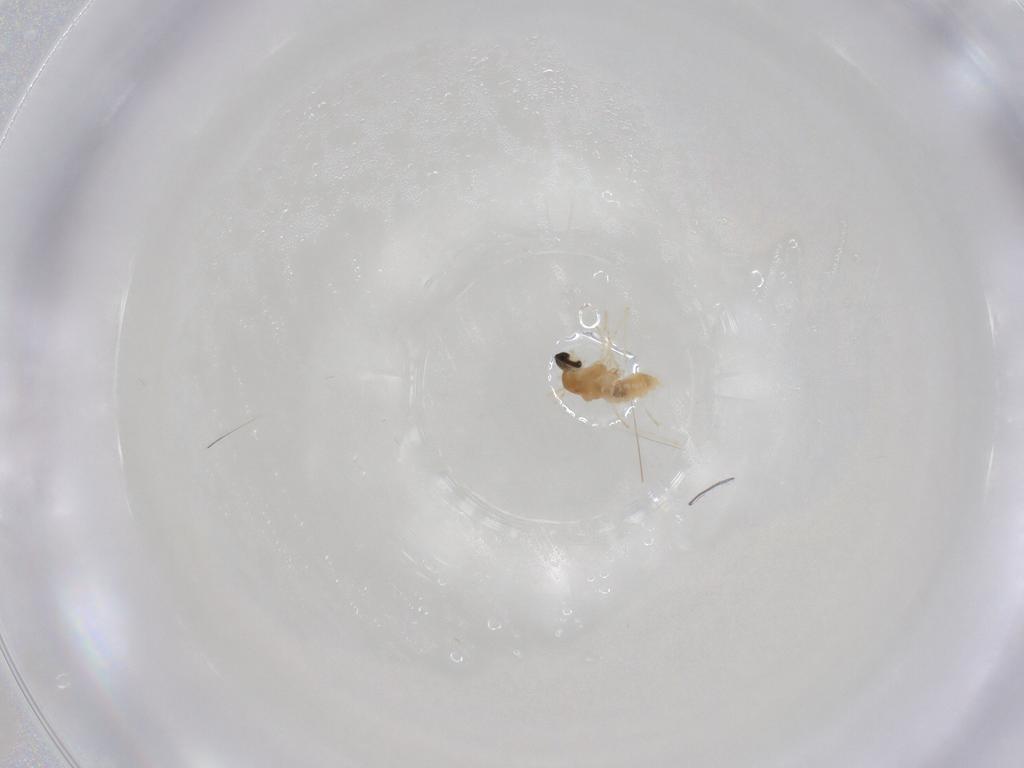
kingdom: Animalia
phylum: Arthropoda
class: Insecta
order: Diptera
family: Cecidomyiidae
